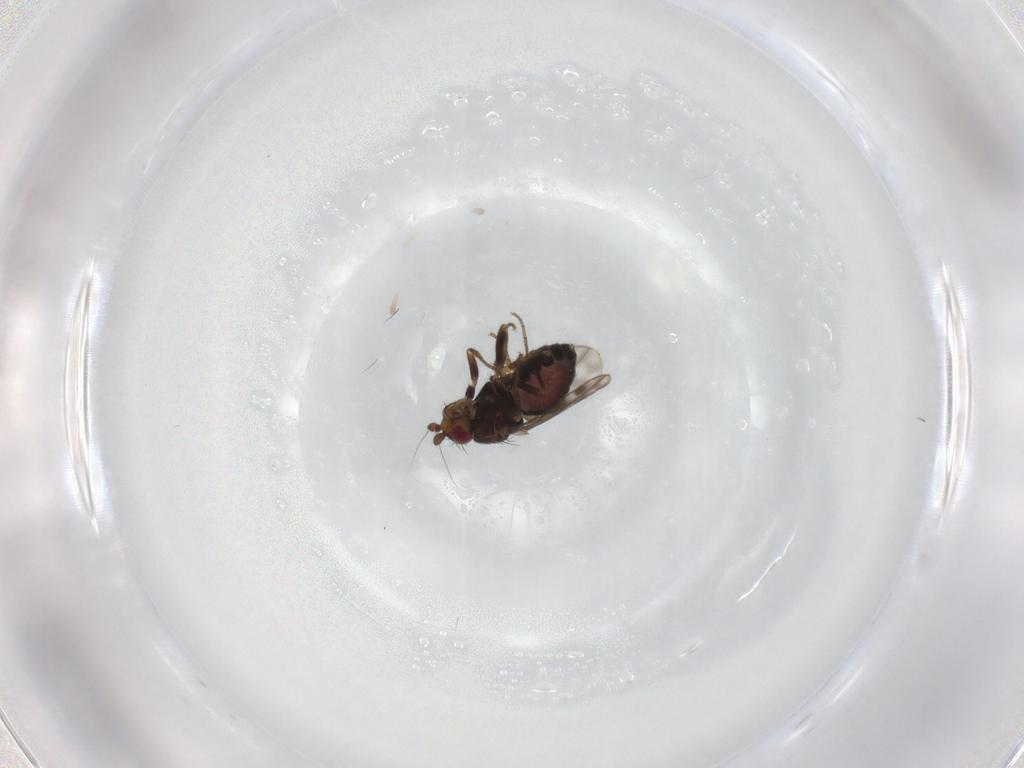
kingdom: Animalia
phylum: Arthropoda
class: Insecta
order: Diptera
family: Sphaeroceridae
